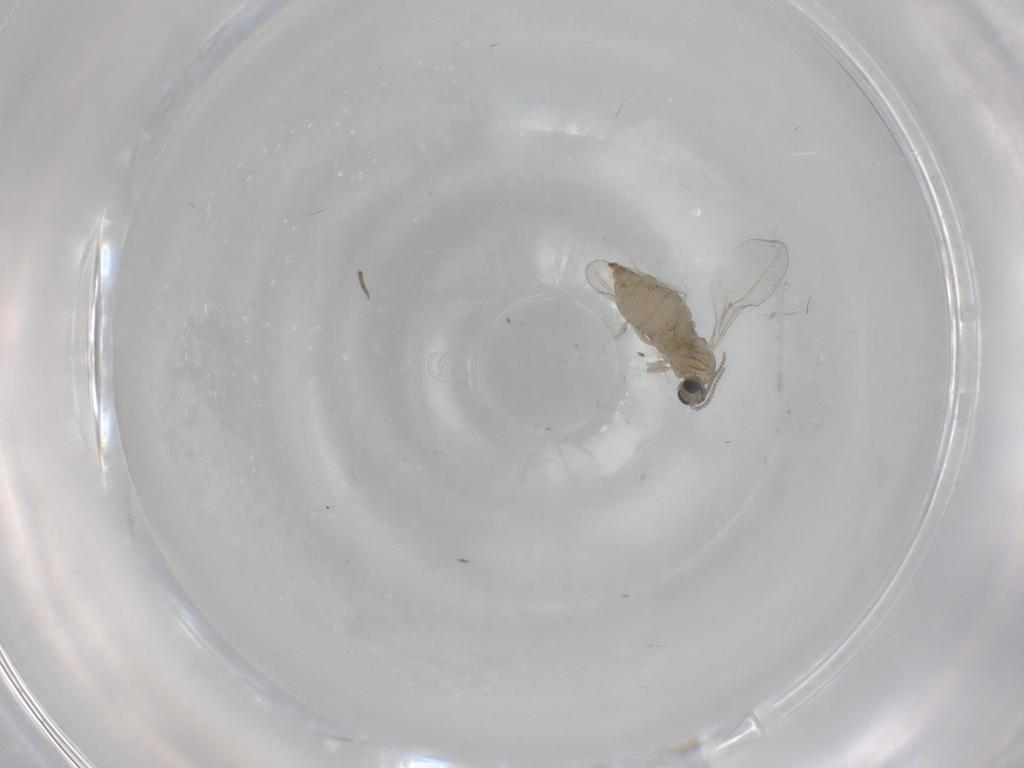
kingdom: Animalia
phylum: Arthropoda
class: Insecta
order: Diptera
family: Cecidomyiidae
